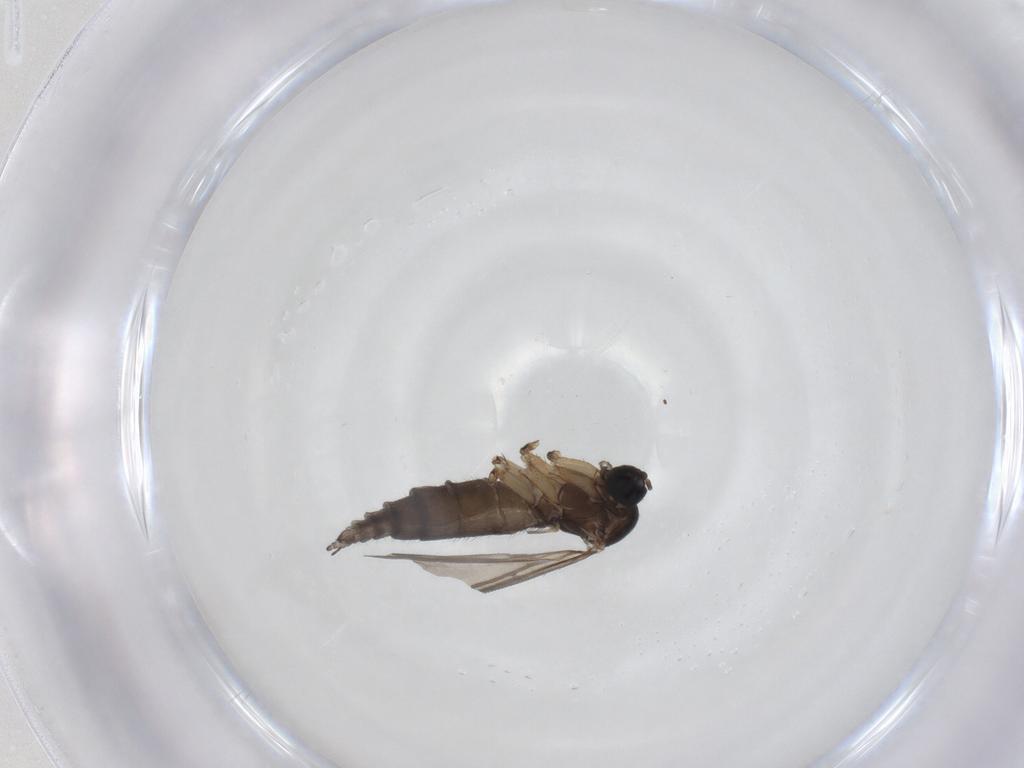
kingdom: Animalia
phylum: Arthropoda
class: Insecta
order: Diptera
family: Sciaridae
